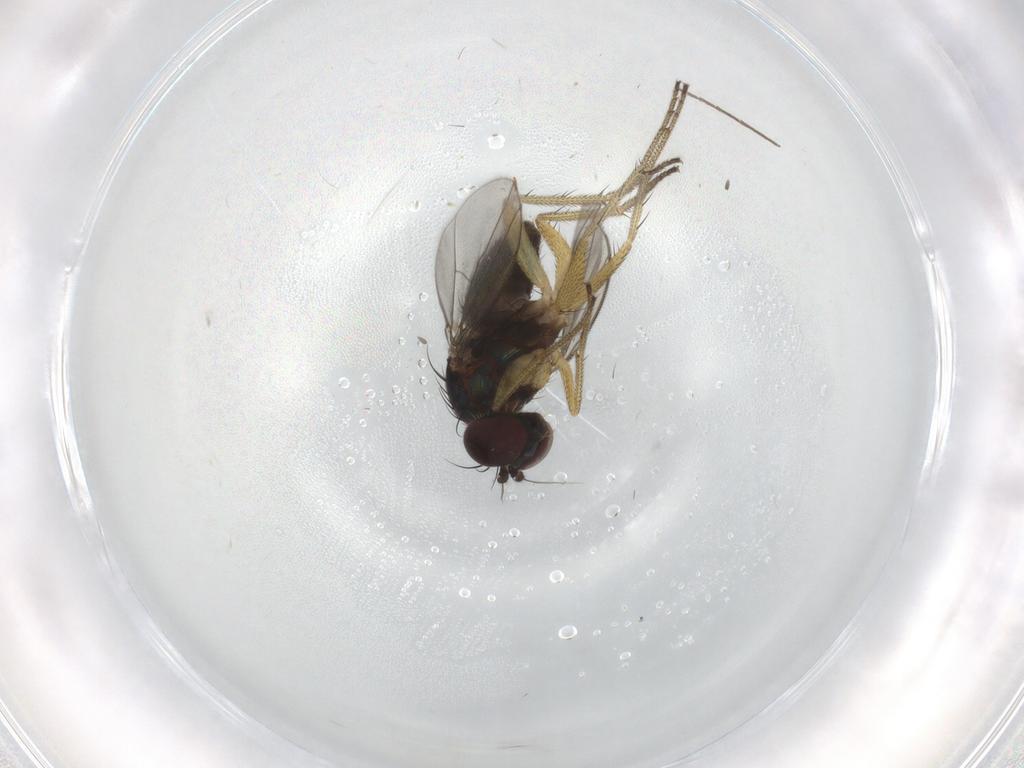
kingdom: Animalia
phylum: Arthropoda
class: Insecta
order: Diptera
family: Dolichopodidae
